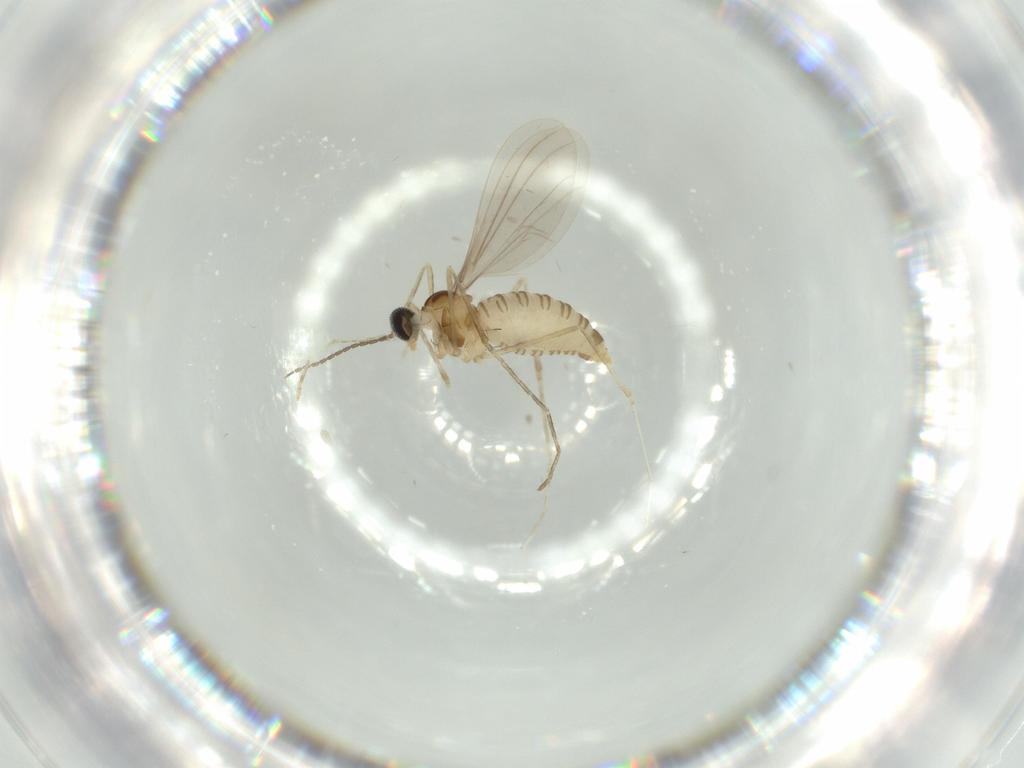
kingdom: Animalia
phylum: Arthropoda
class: Insecta
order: Diptera
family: Cecidomyiidae
